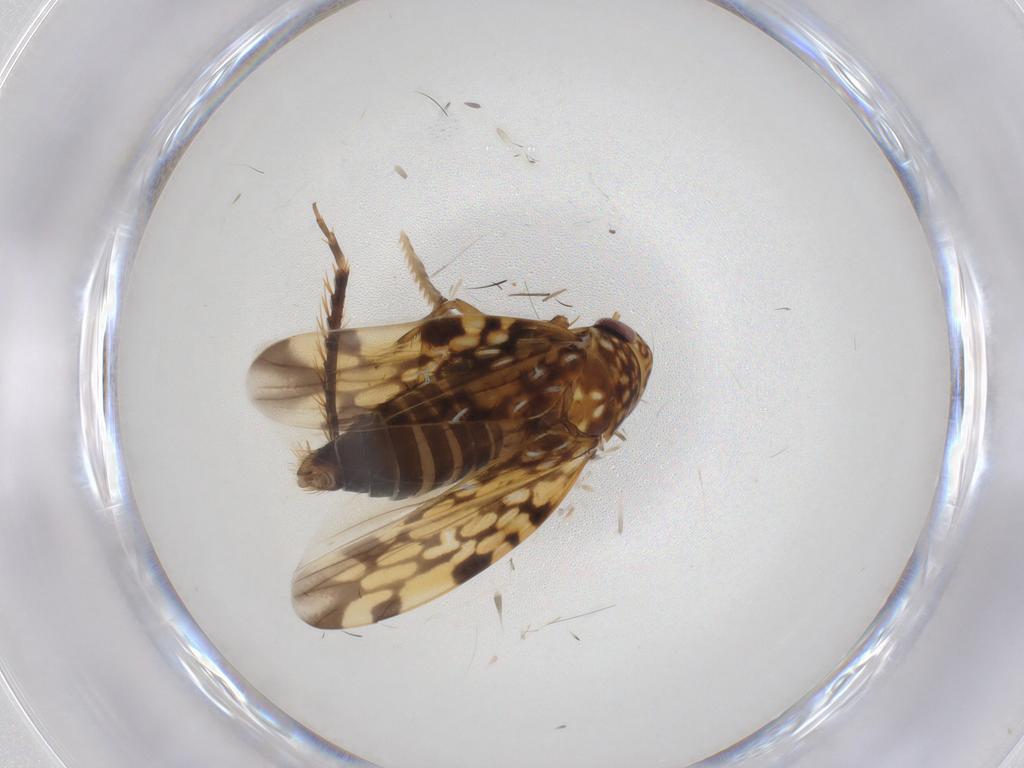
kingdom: Animalia
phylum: Arthropoda
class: Insecta
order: Hemiptera
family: Cicadellidae
